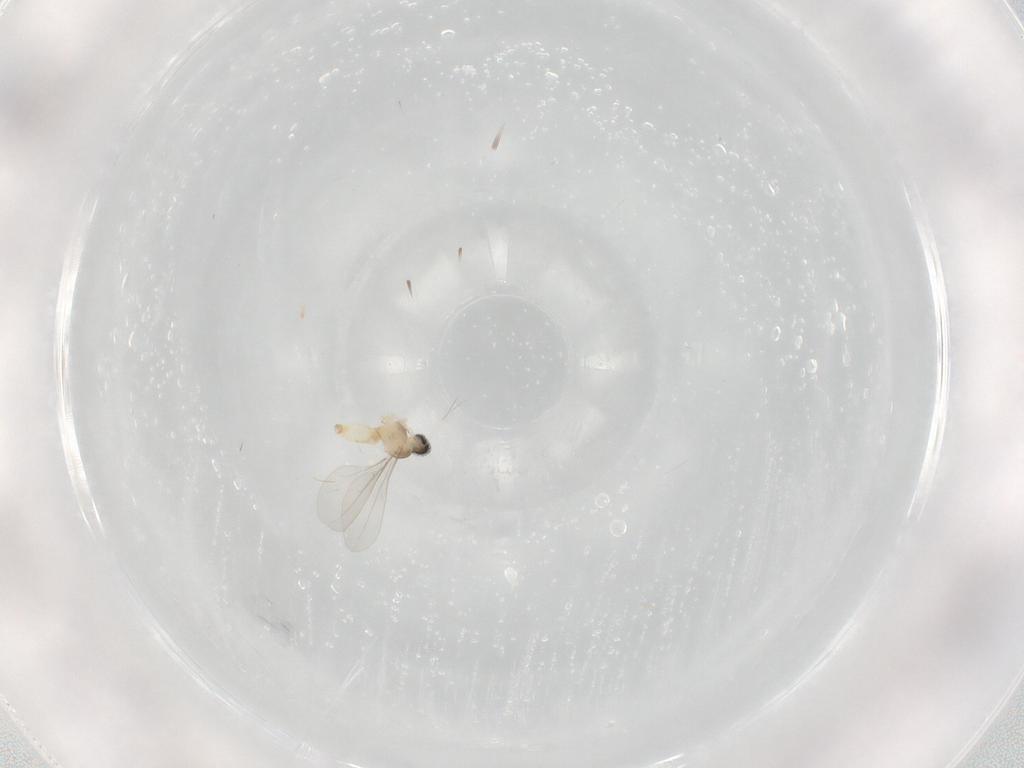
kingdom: Animalia
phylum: Arthropoda
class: Insecta
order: Diptera
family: Cecidomyiidae
